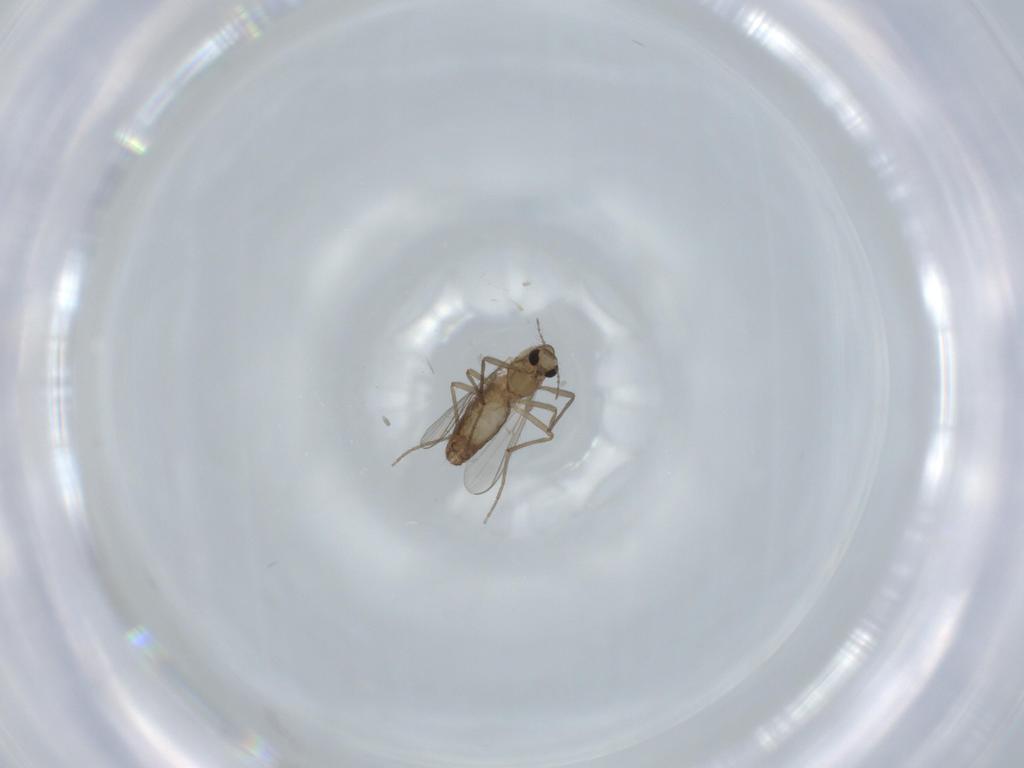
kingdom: Animalia
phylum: Arthropoda
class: Insecta
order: Diptera
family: Chironomidae
